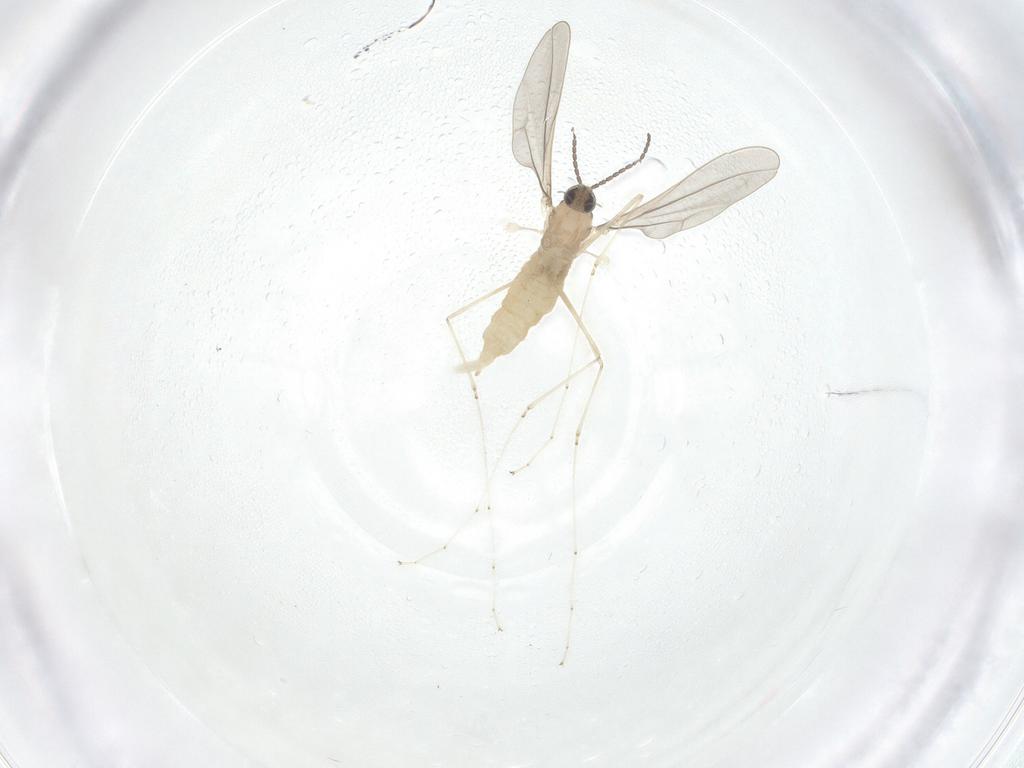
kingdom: Animalia
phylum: Arthropoda
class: Insecta
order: Diptera
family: Cecidomyiidae
